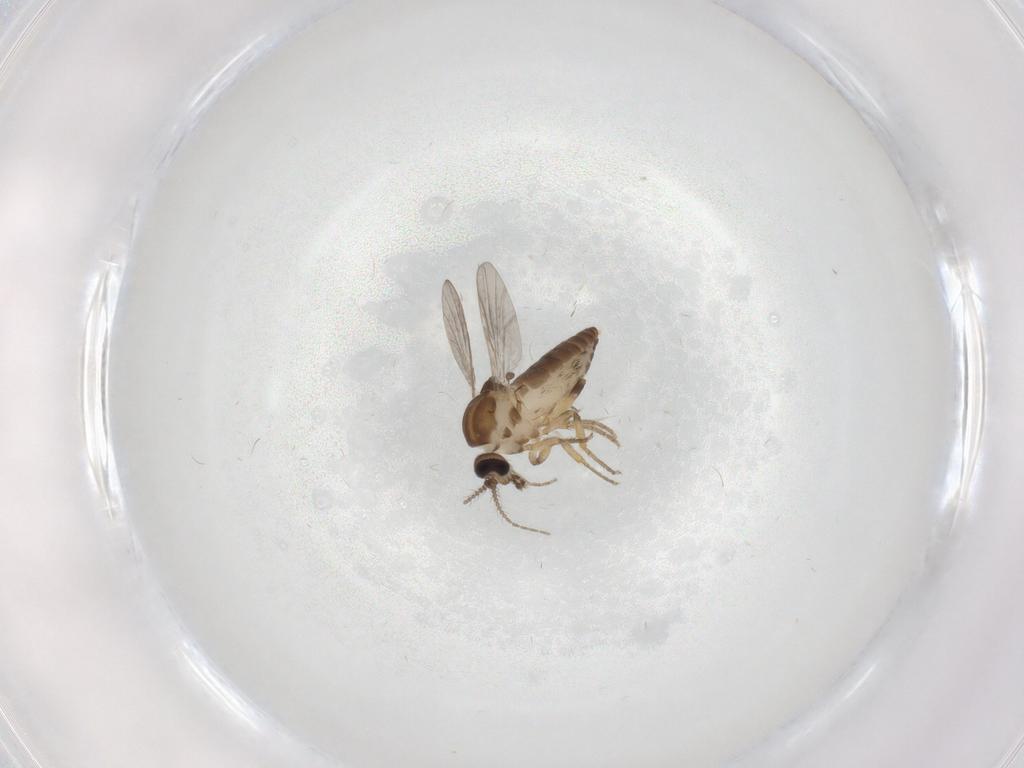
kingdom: Animalia
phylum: Arthropoda
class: Insecta
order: Diptera
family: Ceratopogonidae
